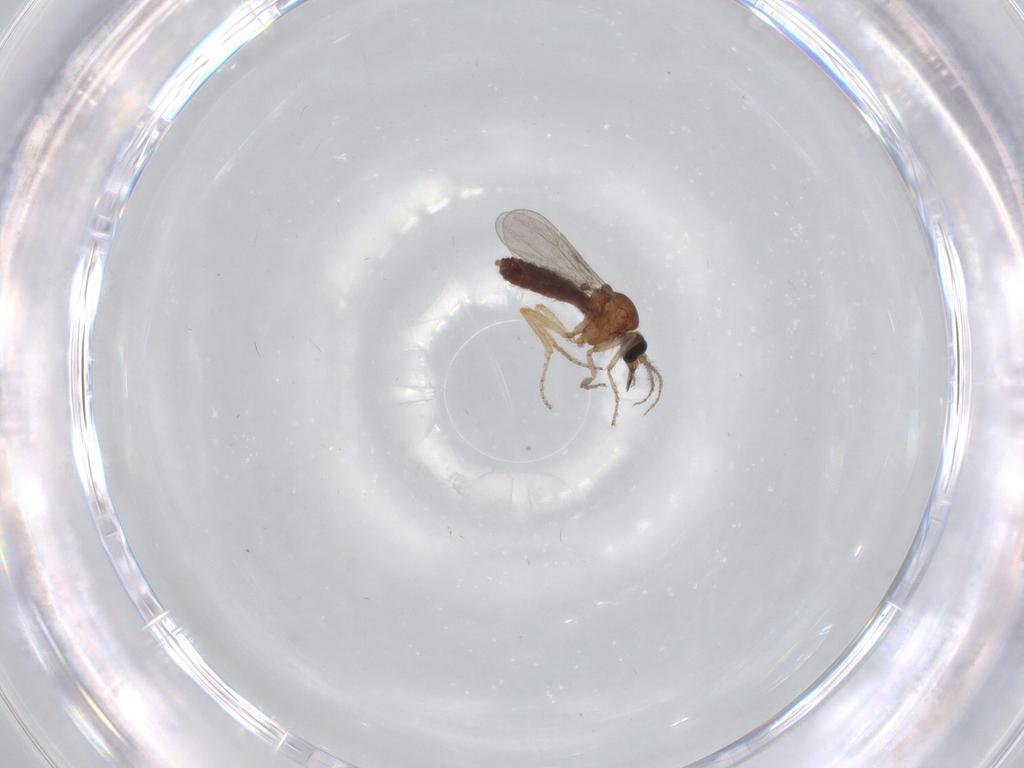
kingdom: Animalia
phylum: Arthropoda
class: Insecta
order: Diptera
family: Ceratopogonidae
